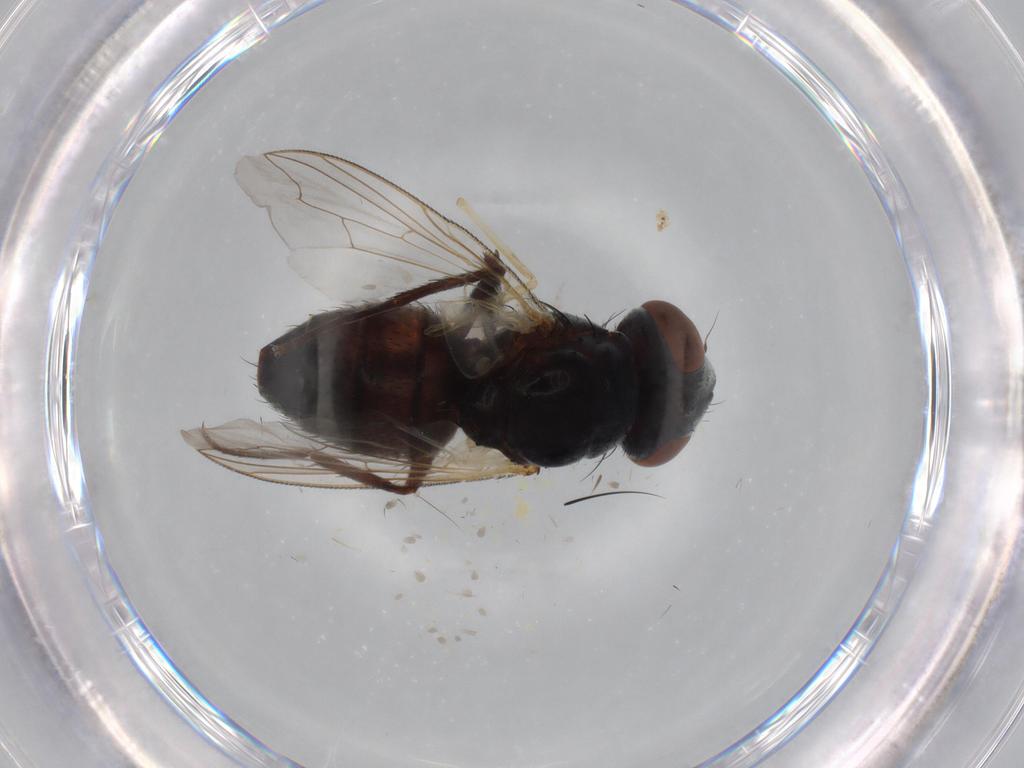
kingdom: Animalia
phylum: Arthropoda
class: Insecta
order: Diptera
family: Sarcophagidae
